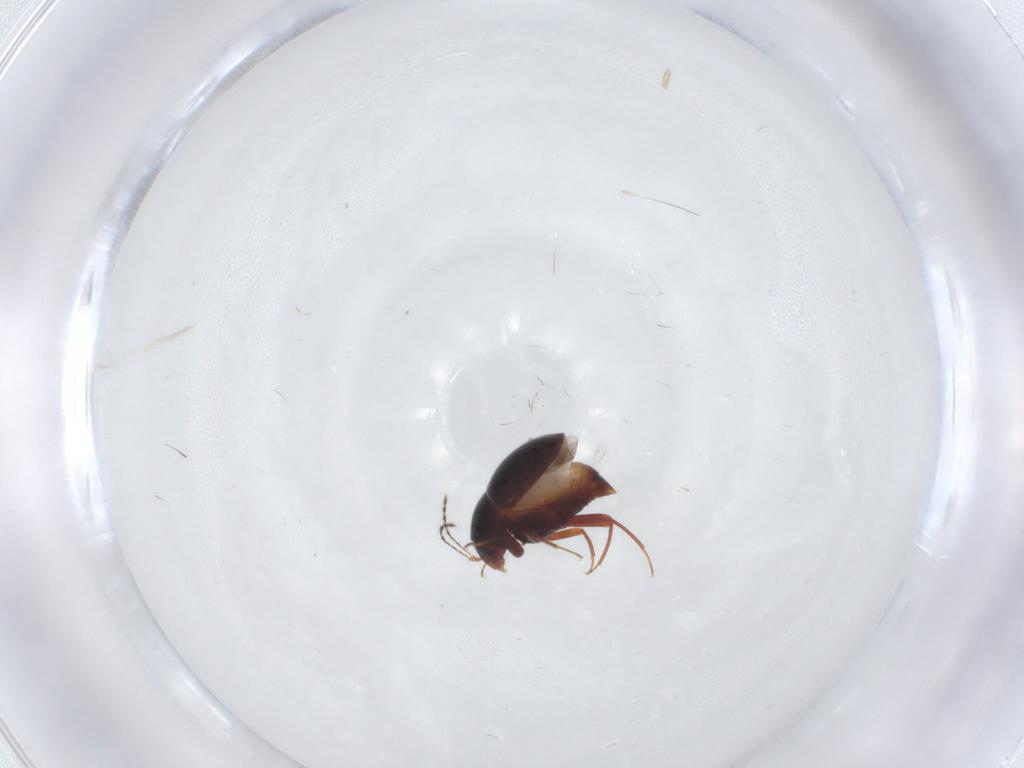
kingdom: Animalia
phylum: Arthropoda
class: Insecta
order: Coleoptera
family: Staphylinidae
